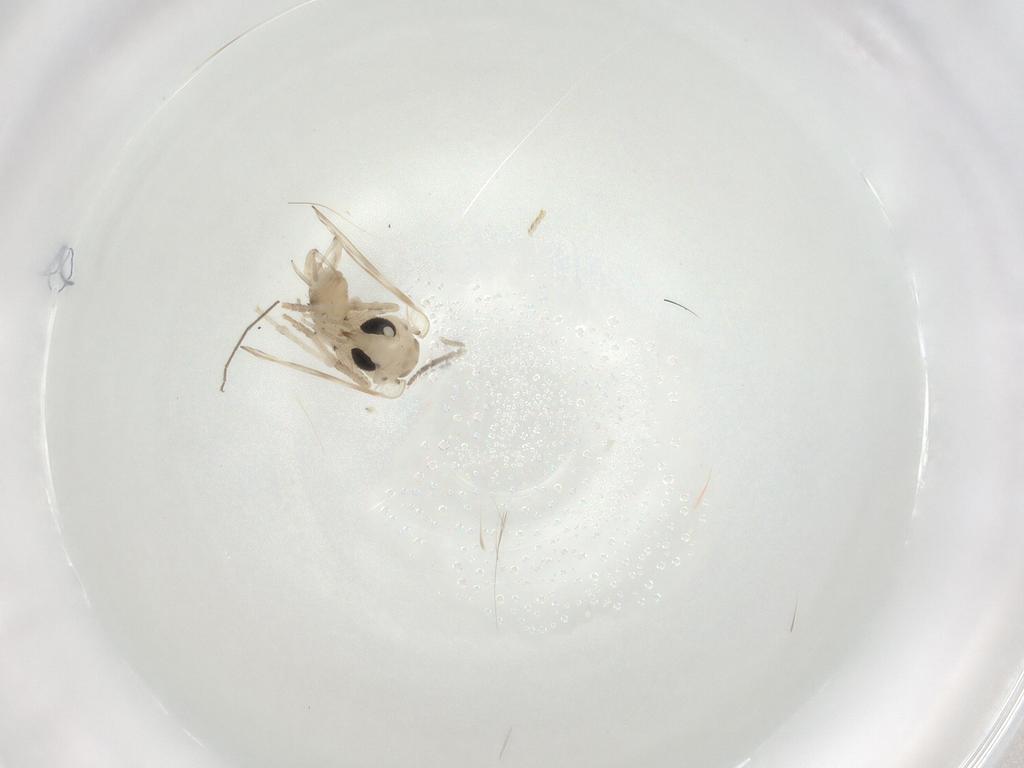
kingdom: Animalia
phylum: Arthropoda
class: Insecta
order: Diptera
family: Psychodidae
